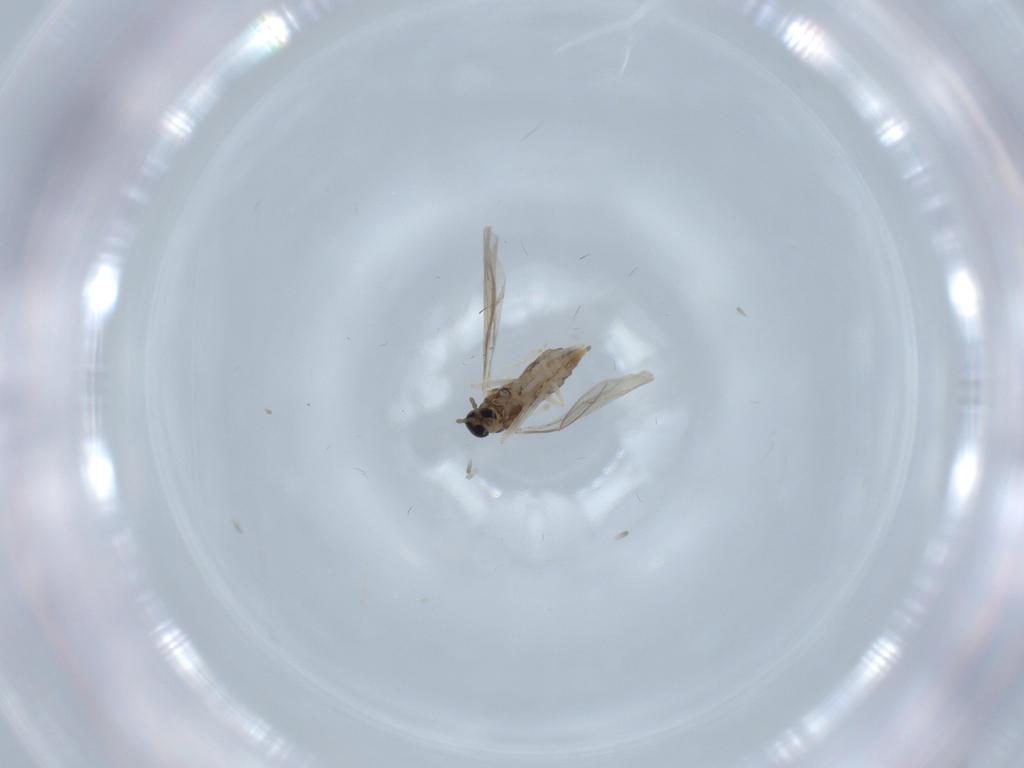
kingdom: Animalia
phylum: Arthropoda
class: Insecta
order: Diptera
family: Cecidomyiidae
